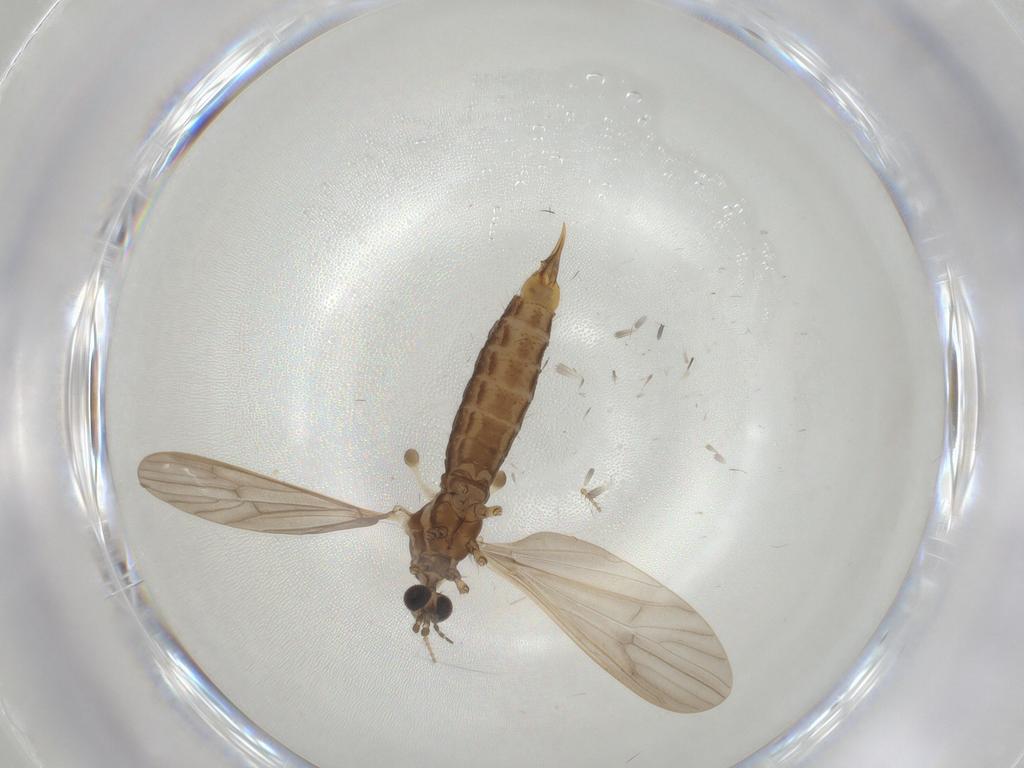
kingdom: Animalia
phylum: Arthropoda
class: Insecta
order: Diptera
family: Limoniidae
